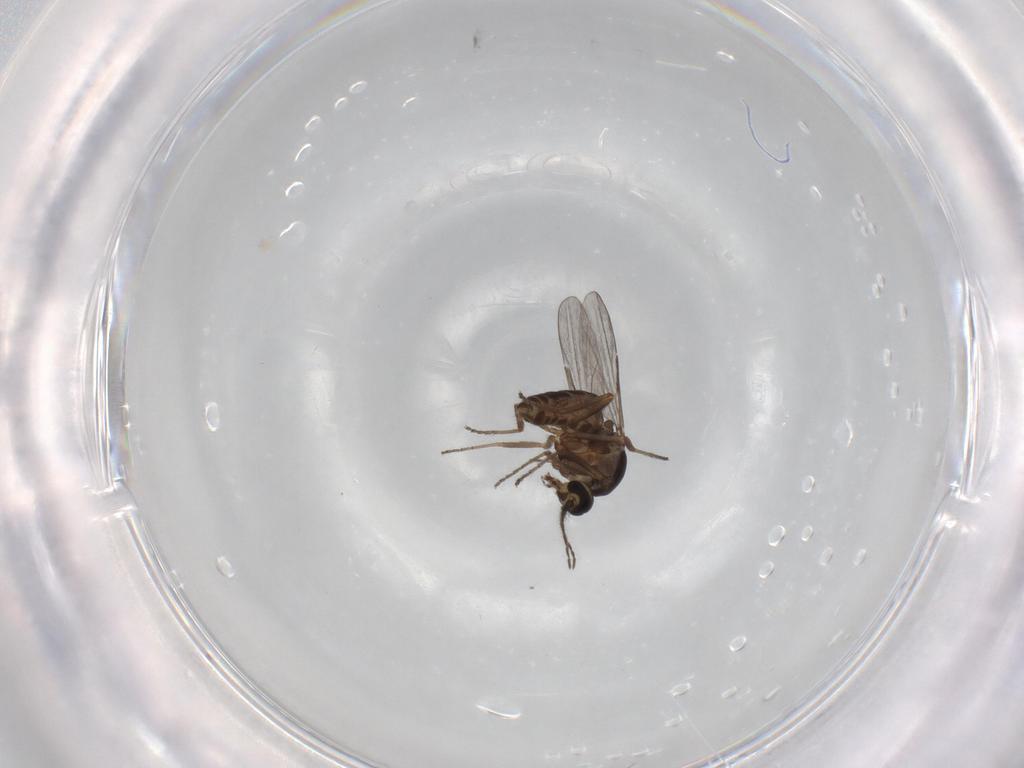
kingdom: Animalia
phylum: Arthropoda
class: Insecta
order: Diptera
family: Ceratopogonidae
